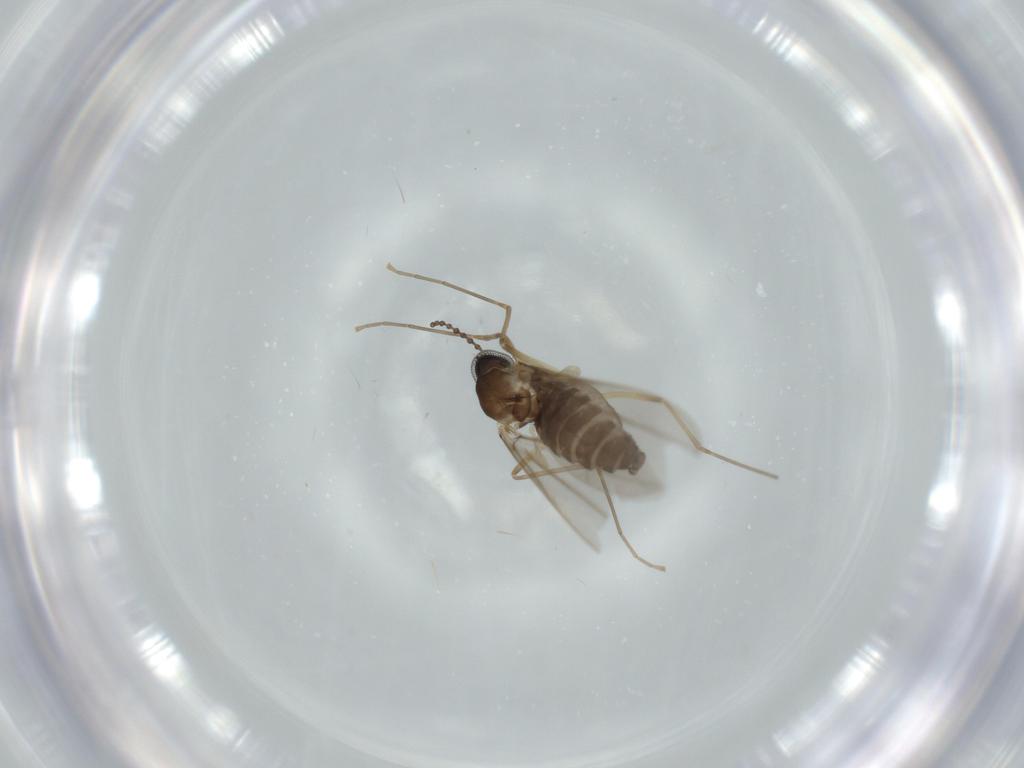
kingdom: Animalia
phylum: Arthropoda
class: Insecta
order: Diptera
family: Cecidomyiidae
